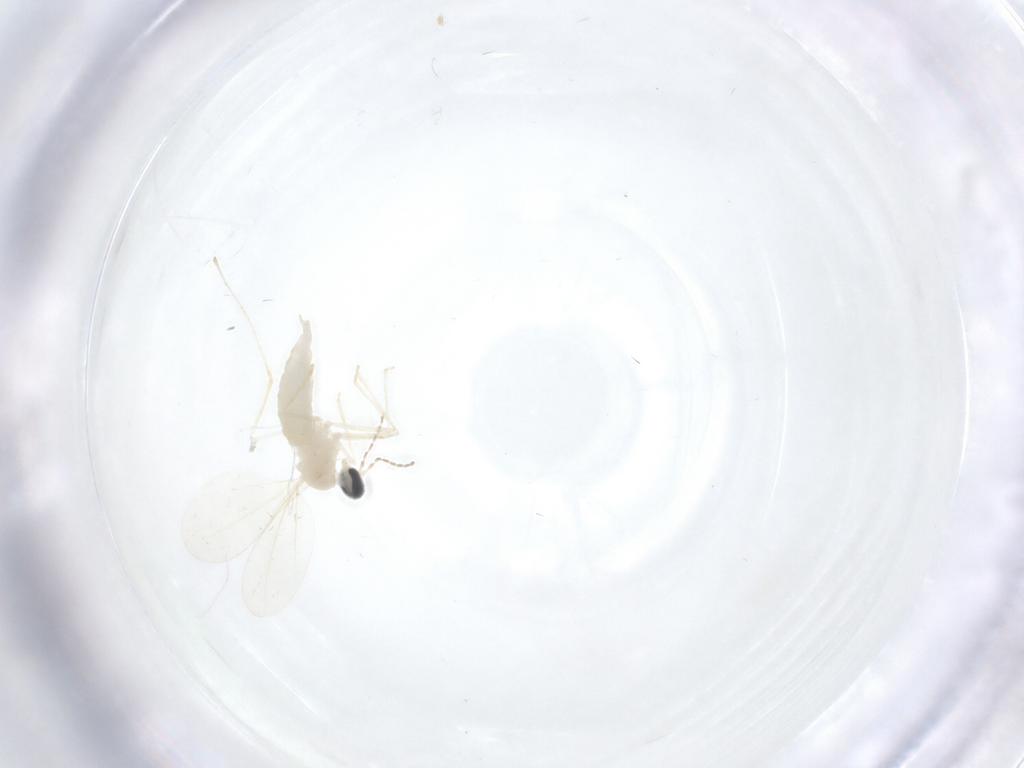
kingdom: Animalia
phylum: Arthropoda
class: Insecta
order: Diptera
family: Cecidomyiidae
